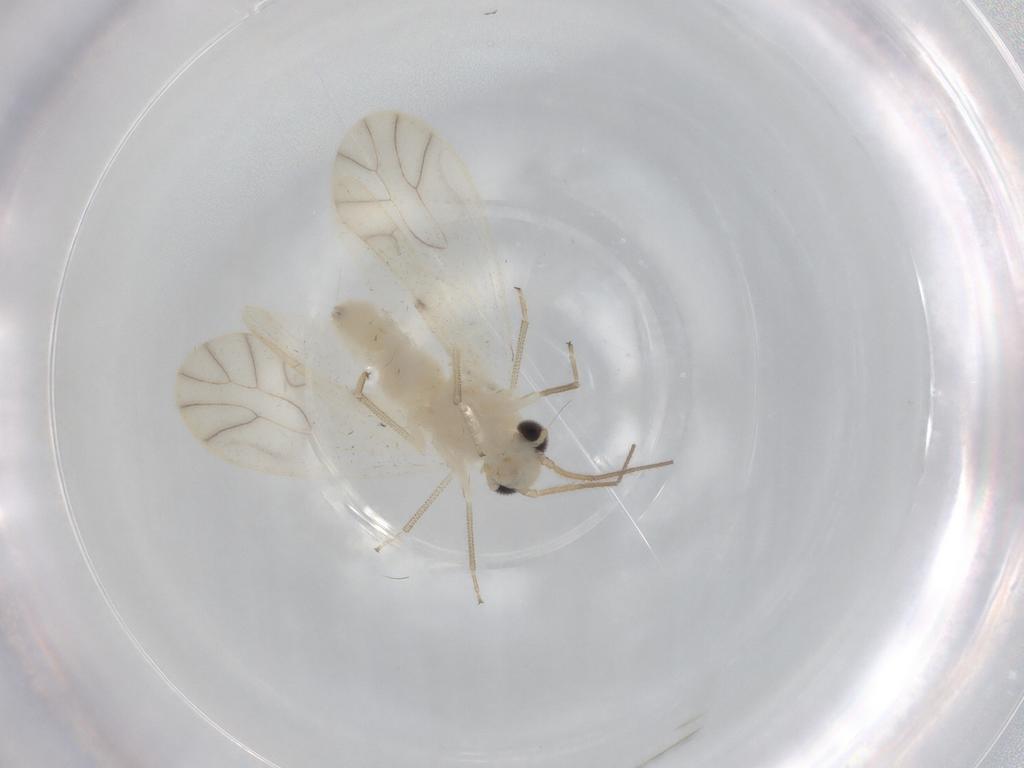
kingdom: Animalia
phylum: Arthropoda
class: Insecta
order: Psocodea
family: Caeciliusidae
